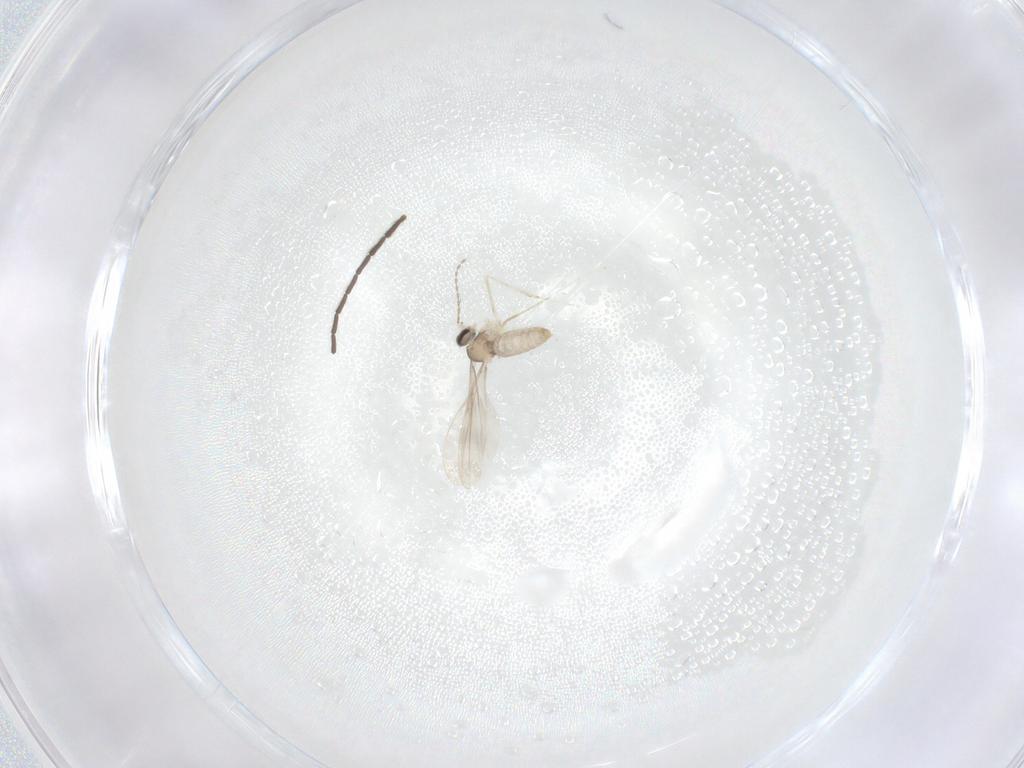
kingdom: Animalia
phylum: Arthropoda
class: Insecta
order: Diptera
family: Cecidomyiidae
